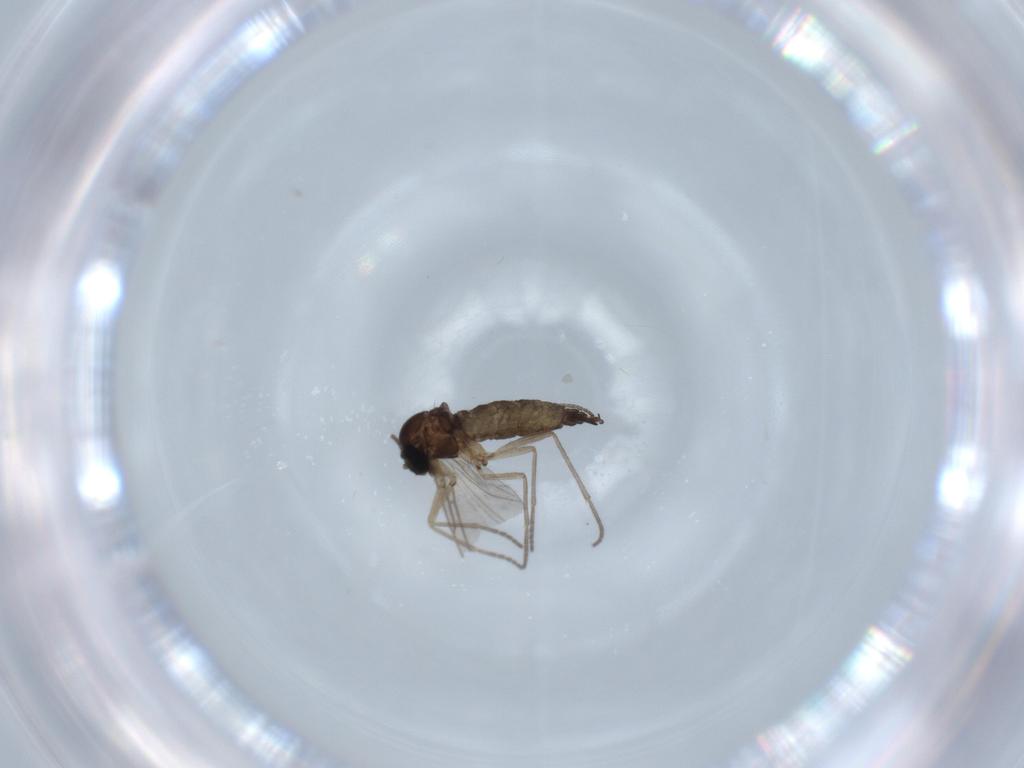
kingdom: Animalia
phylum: Arthropoda
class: Insecta
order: Diptera
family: Sciaridae
